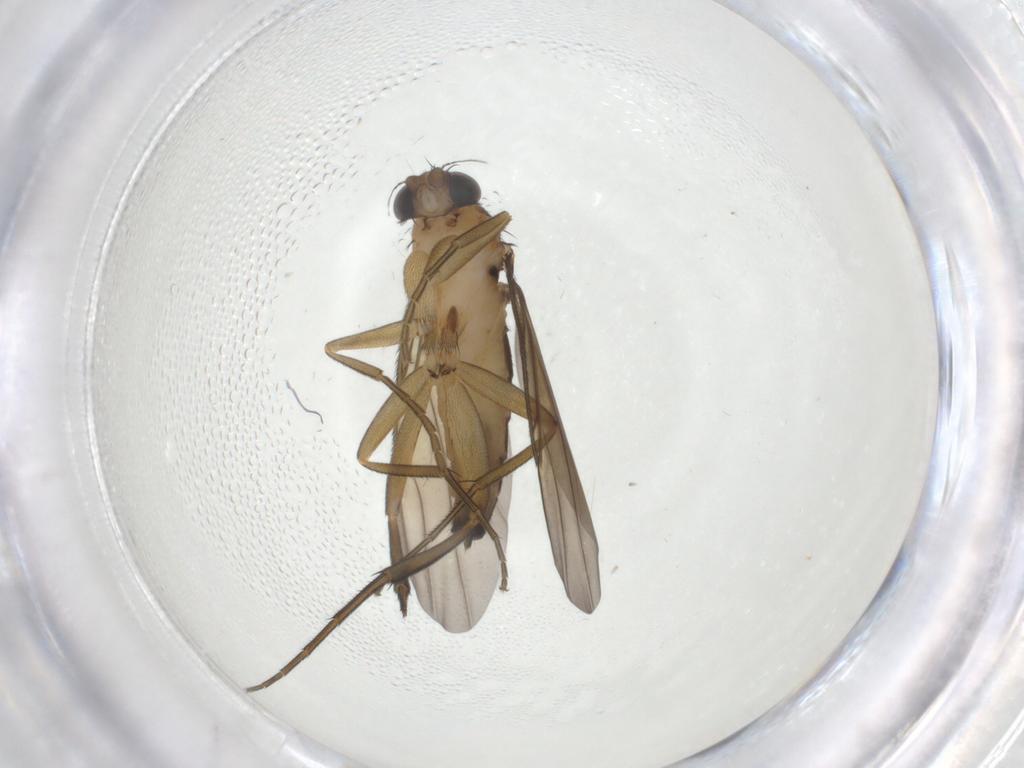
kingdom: Animalia
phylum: Arthropoda
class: Insecta
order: Diptera
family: Phoridae
